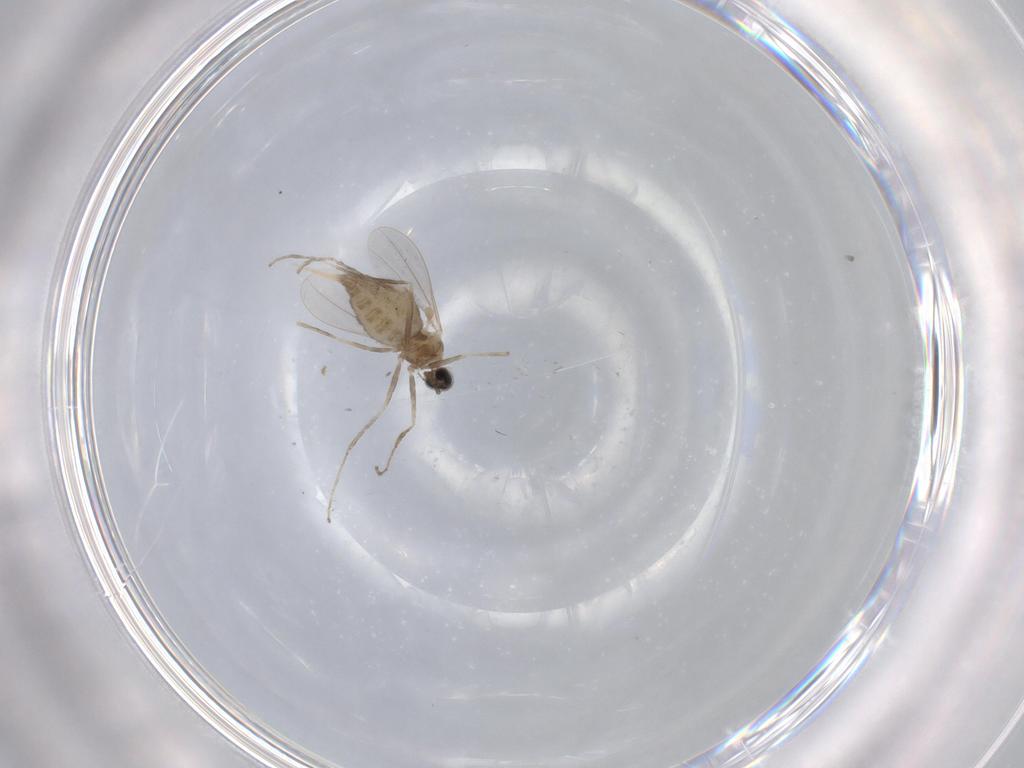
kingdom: Animalia
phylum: Arthropoda
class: Insecta
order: Diptera
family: Cecidomyiidae
